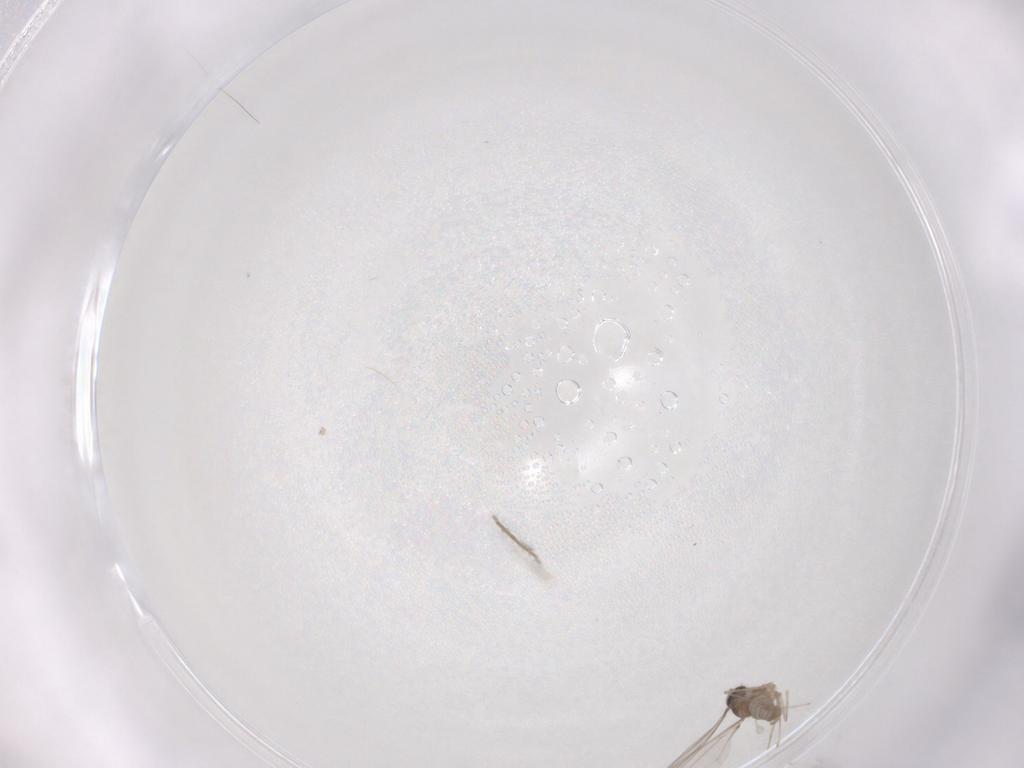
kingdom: Animalia
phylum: Arthropoda
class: Insecta
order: Diptera
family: Cecidomyiidae
